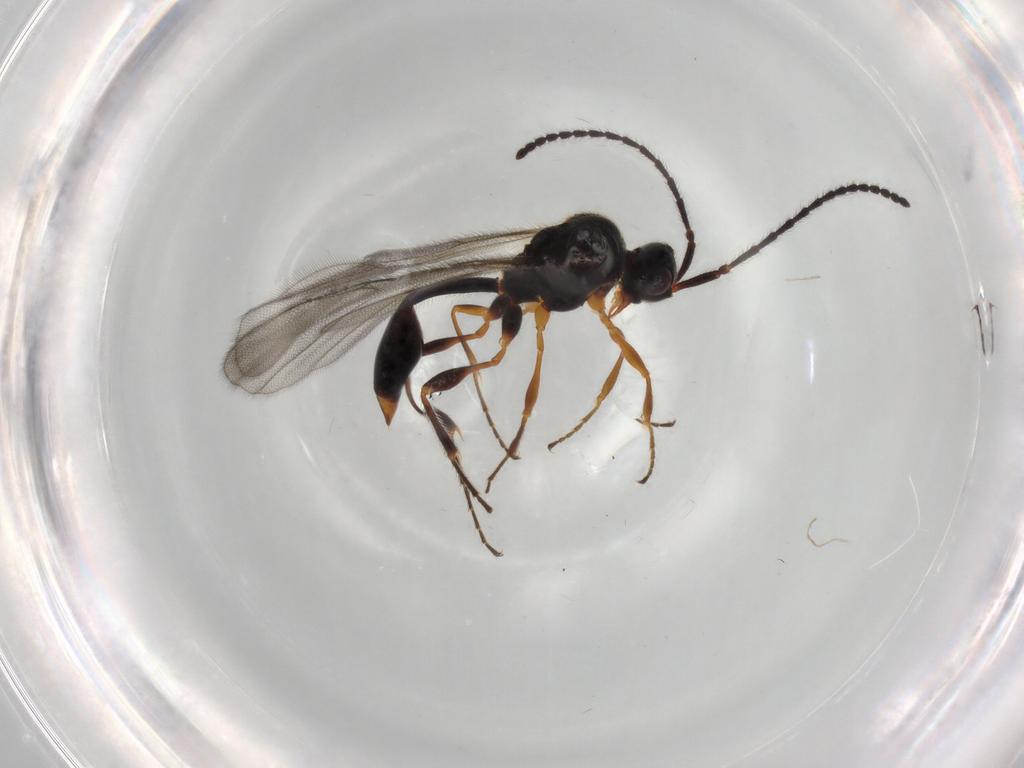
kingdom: Animalia
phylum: Arthropoda
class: Insecta
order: Hymenoptera
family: Diapriidae
